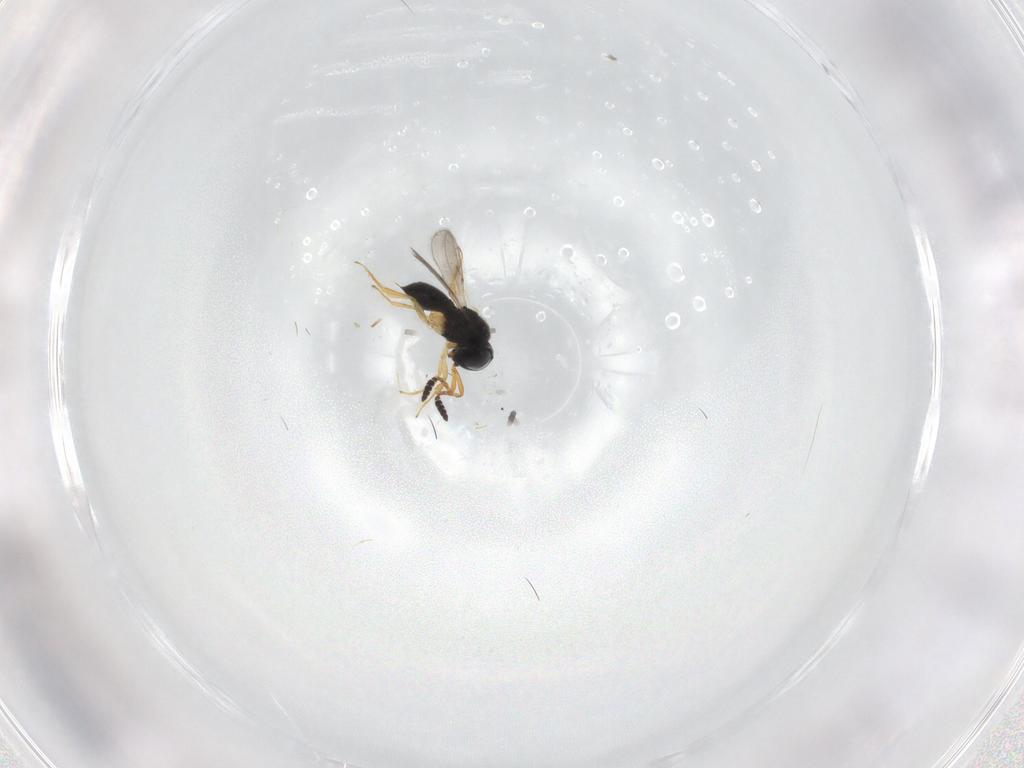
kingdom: Animalia
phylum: Arthropoda
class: Insecta
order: Hymenoptera
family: Scelionidae
